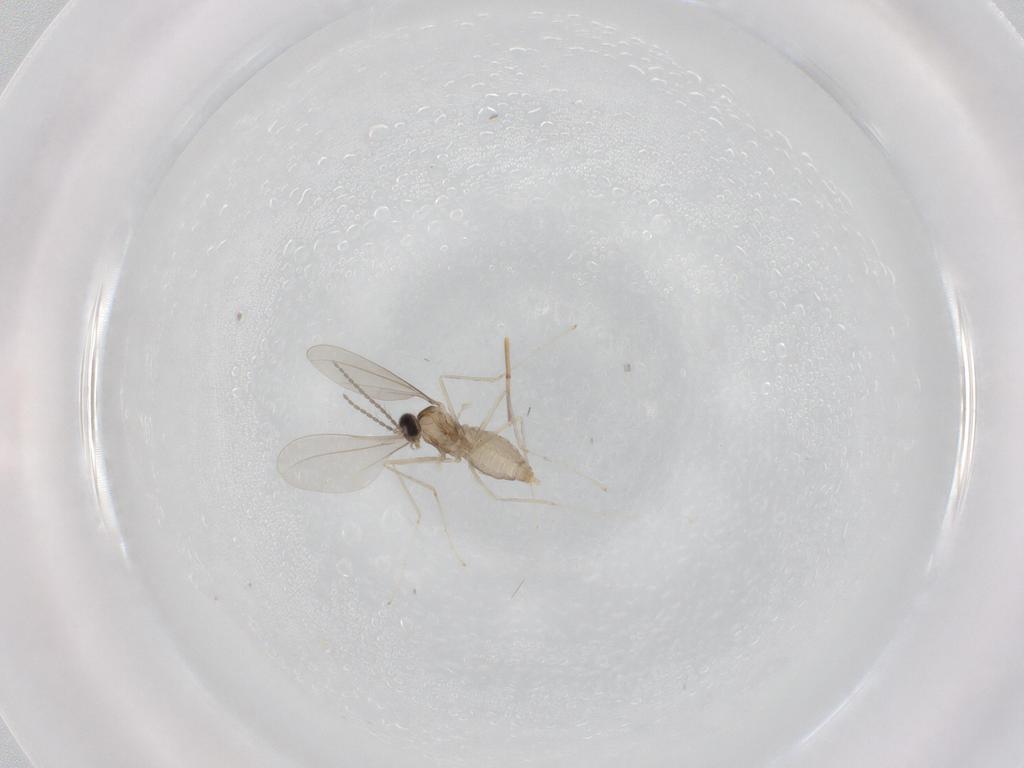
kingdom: Animalia
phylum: Arthropoda
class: Insecta
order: Diptera
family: Cecidomyiidae
